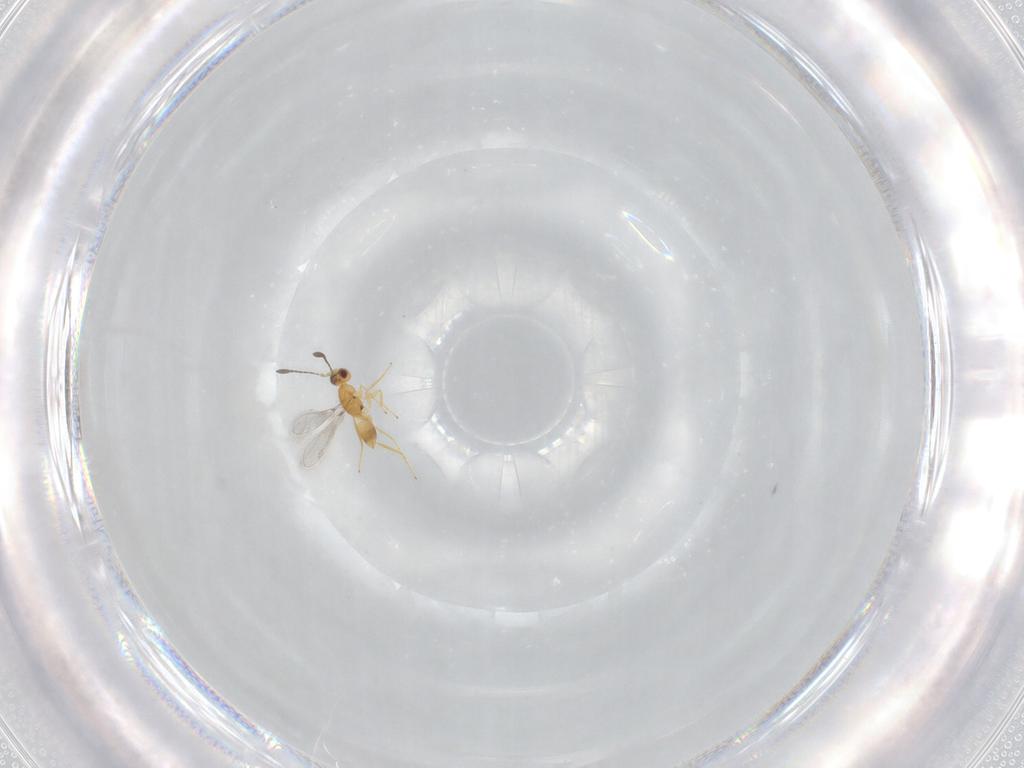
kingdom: Animalia
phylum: Arthropoda
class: Insecta
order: Hymenoptera
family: Mymaridae
